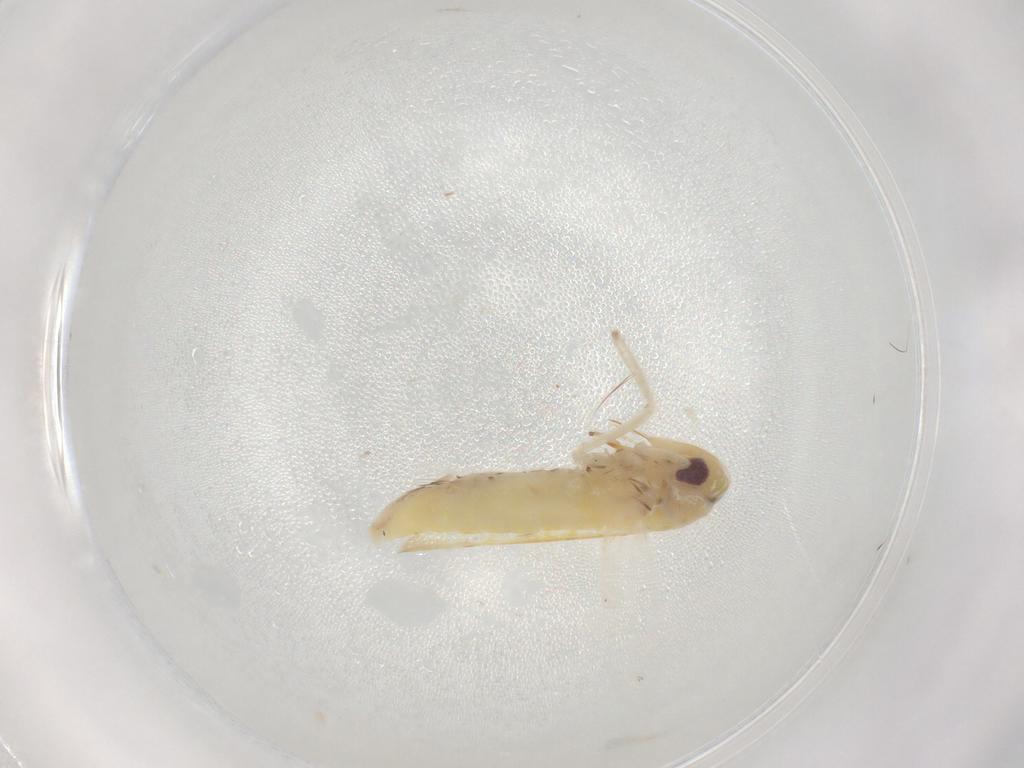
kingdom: Animalia
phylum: Arthropoda
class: Insecta
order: Hemiptera
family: Cicadellidae
